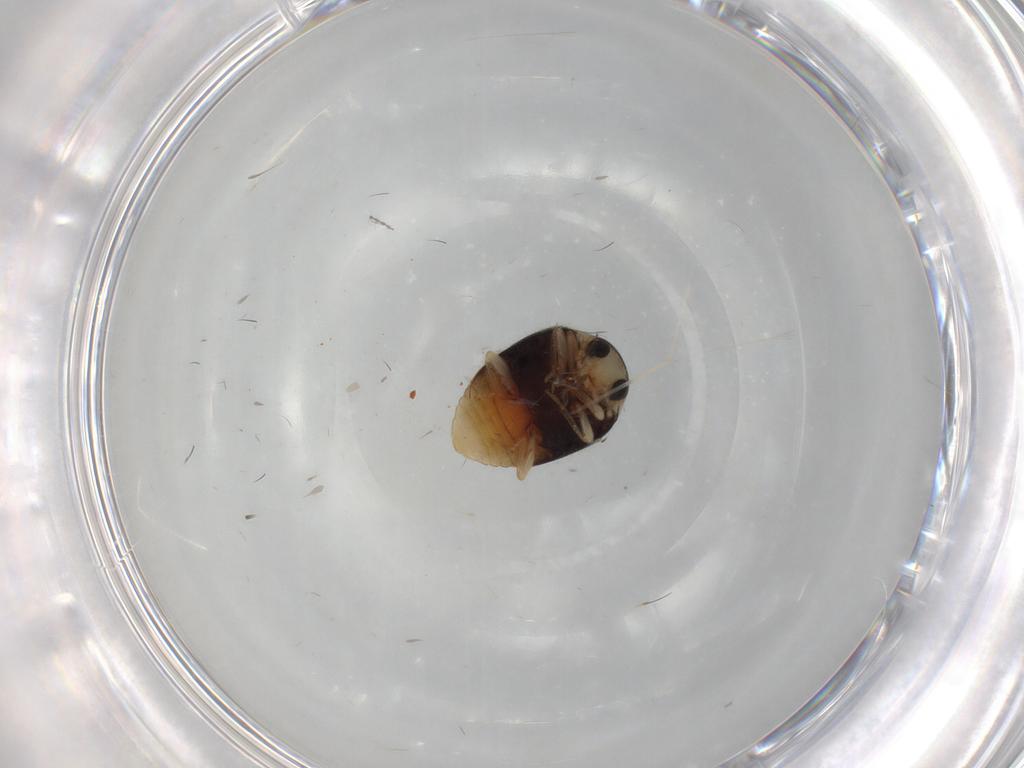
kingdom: Animalia
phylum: Arthropoda
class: Insecta
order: Coleoptera
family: Coccinellidae
